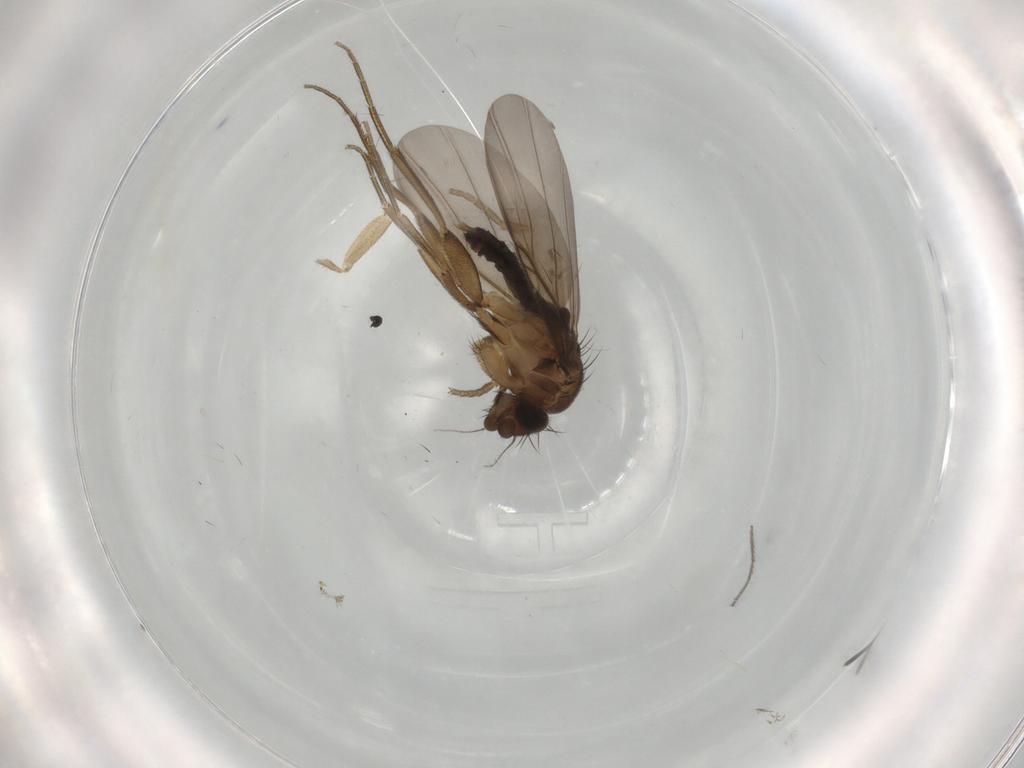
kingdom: Animalia
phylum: Arthropoda
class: Insecta
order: Diptera
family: Phoridae
